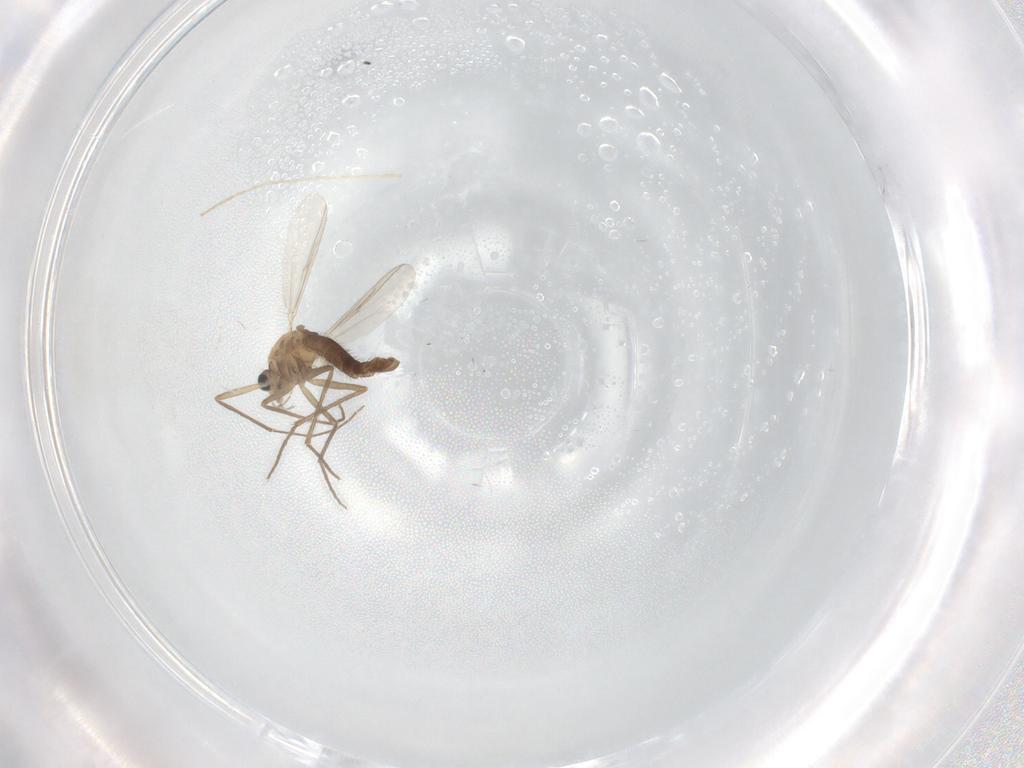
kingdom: Animalia
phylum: Arthropoda
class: Insecta
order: Diptera
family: Chironomidae
